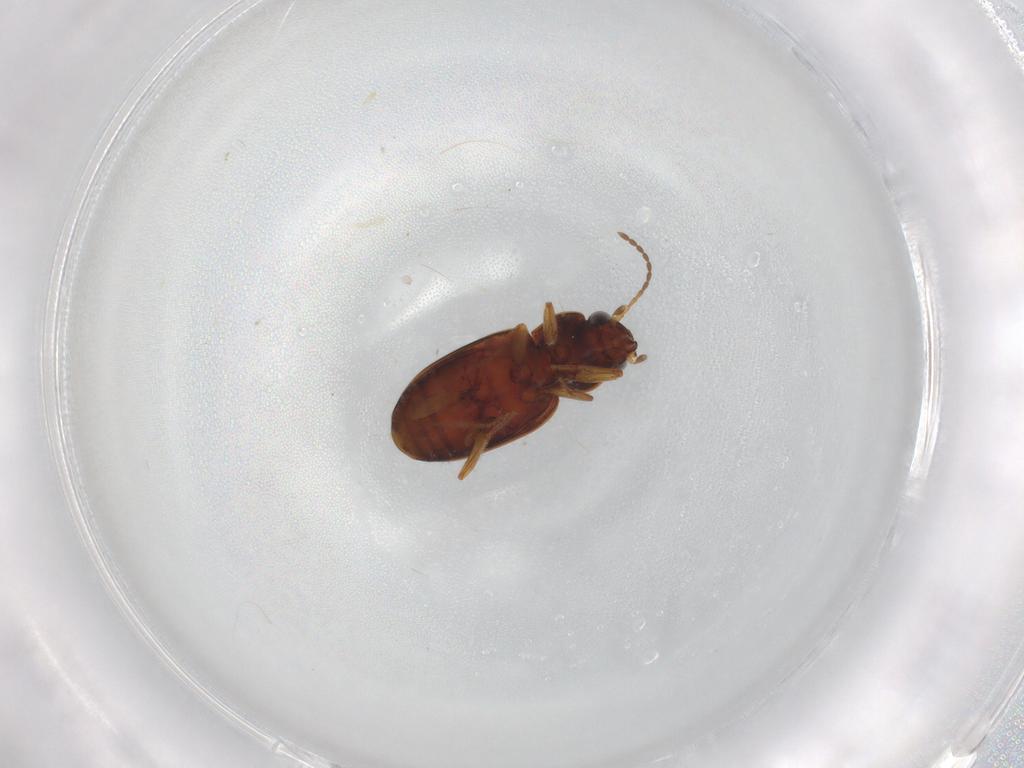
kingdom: Animalia
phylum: Arthropoda
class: Insecta
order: Coleoptera
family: Carabidae
